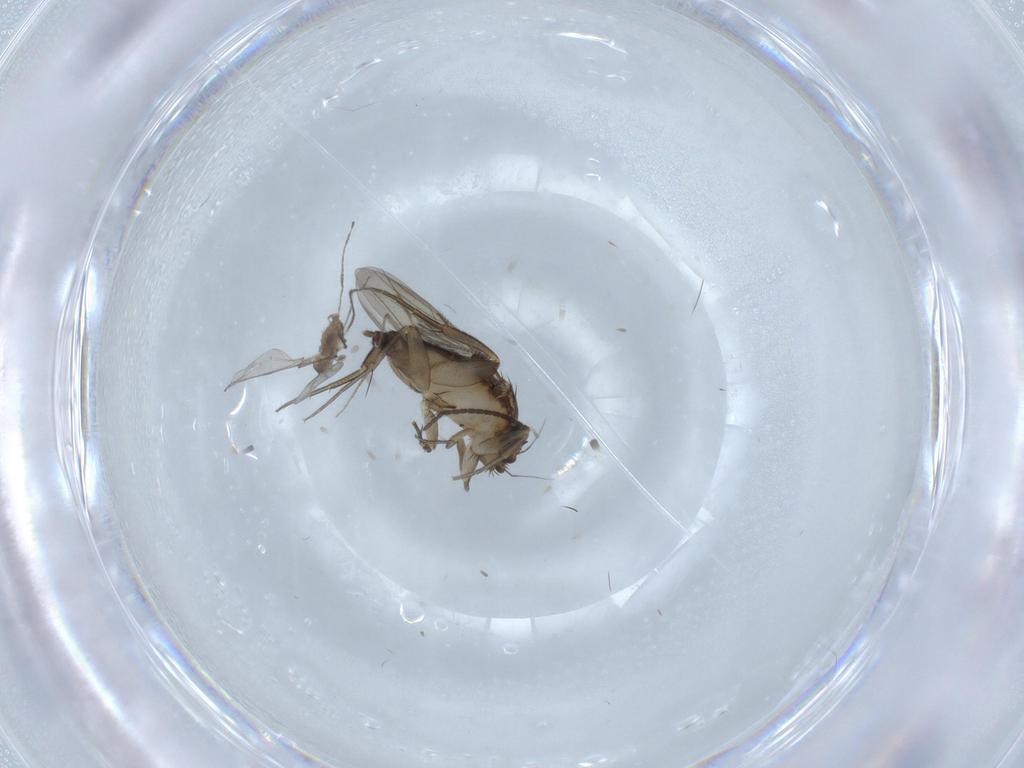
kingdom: Animalia
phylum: Arthropoda
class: Insecta
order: Diptera
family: Phoridae
